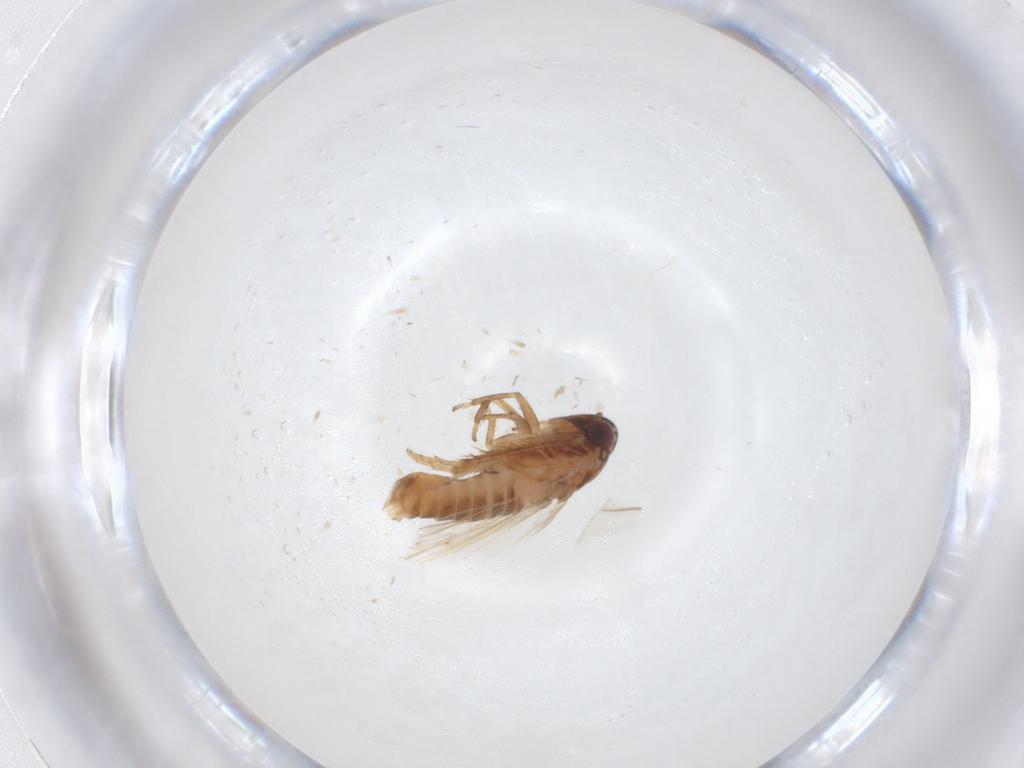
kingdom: Animalia
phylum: Arthropoda
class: Insecta
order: Hemiptera
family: Cicadellidae
